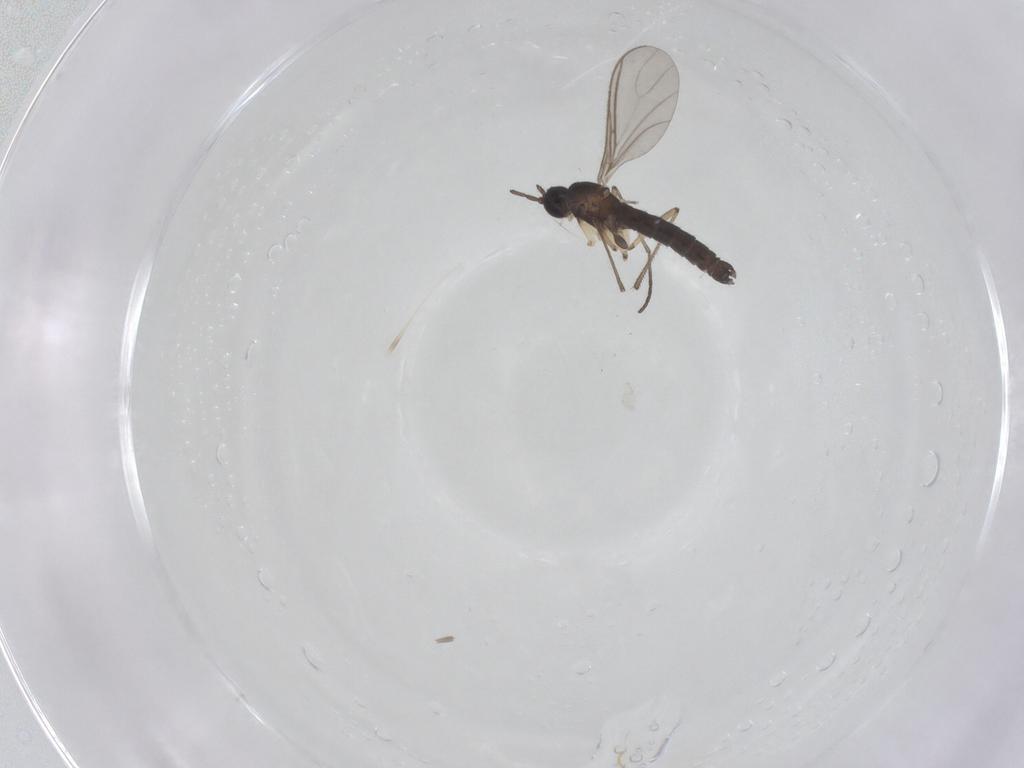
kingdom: Animalia
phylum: Arthropoda
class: Insecta
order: Diptera
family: Cecidomyiidae
